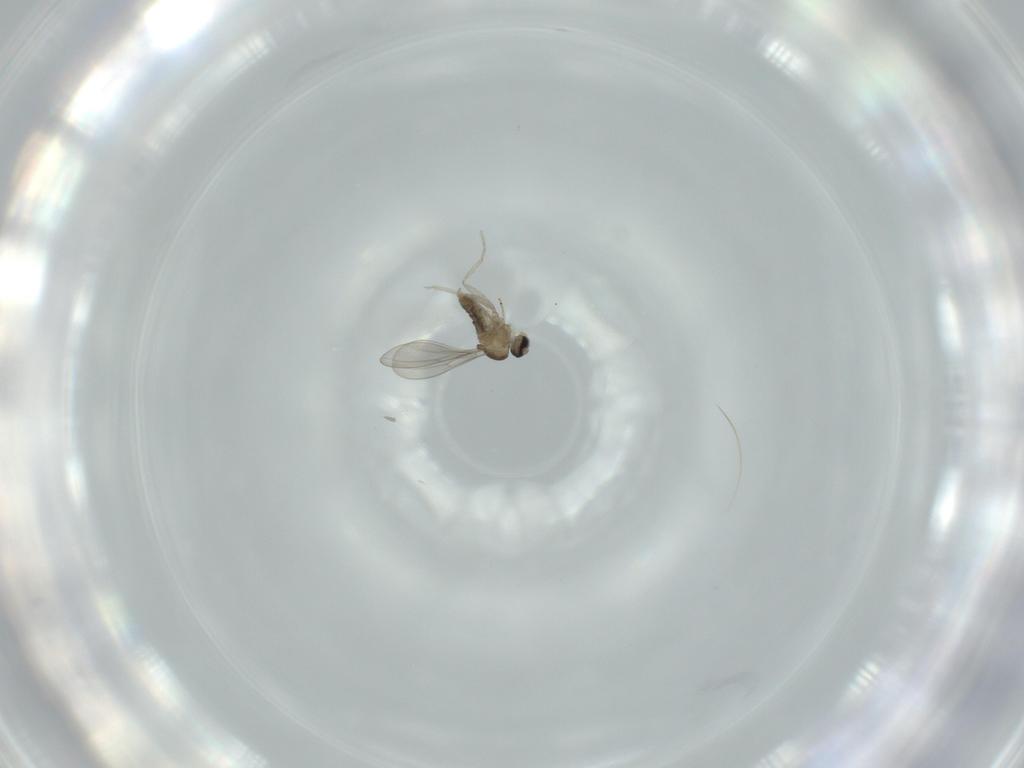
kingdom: Animalia
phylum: Arthropoda
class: Insecta
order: Diptera
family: Cecidomyiidae
